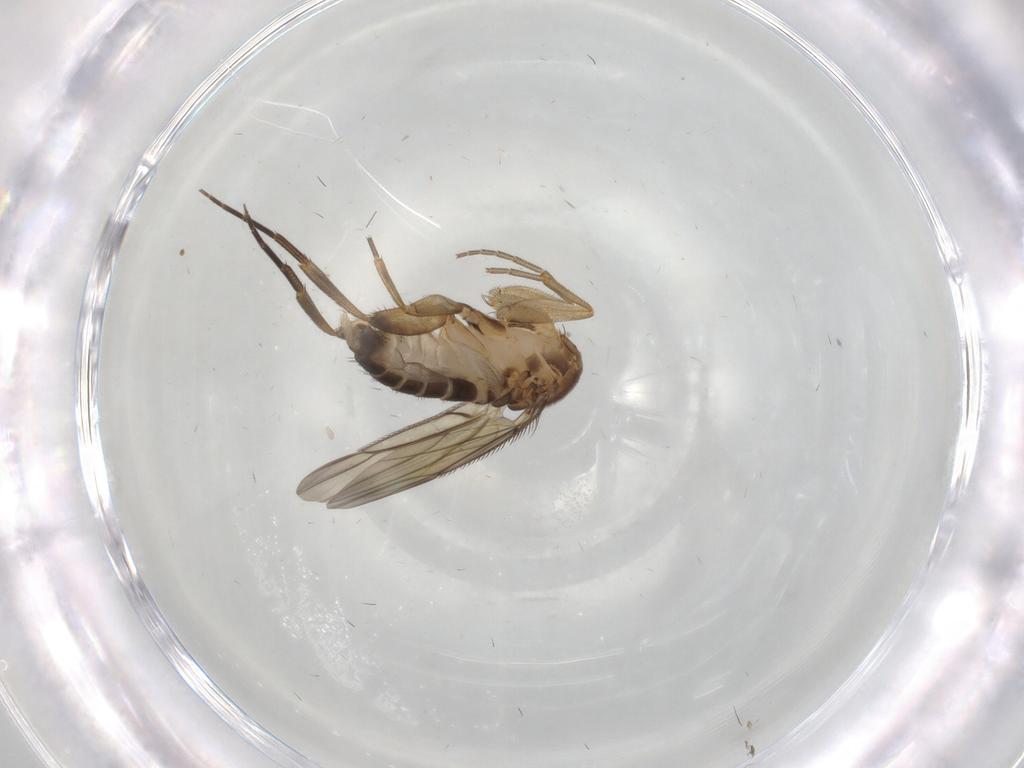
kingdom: Animalia
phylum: Arthropoda
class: Insecta
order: Diptera
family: Phoridae
